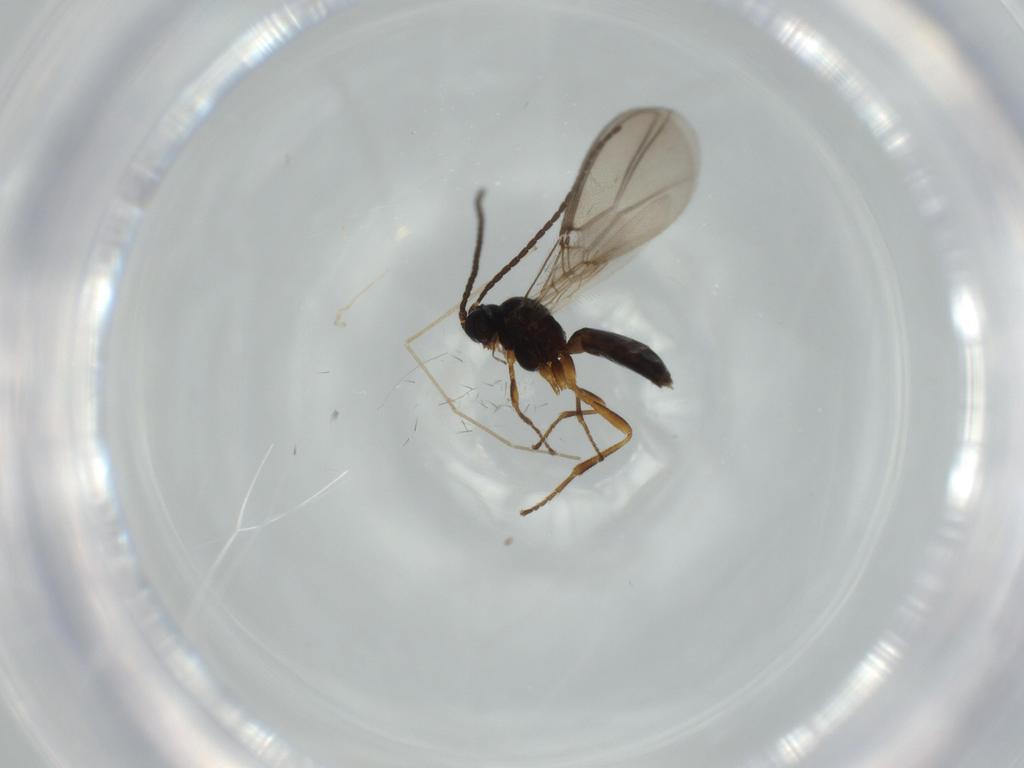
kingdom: Animalia
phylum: Arthropoda
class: Insecta
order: Hymenoptera
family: Braconidae
